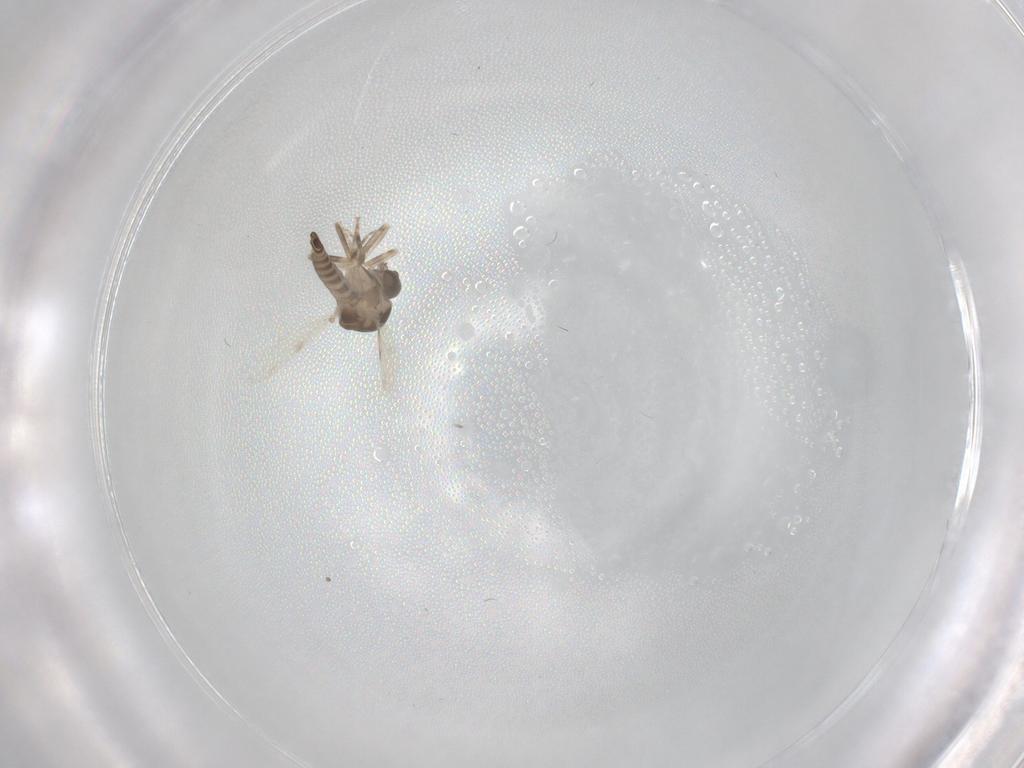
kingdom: Animalia
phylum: Arthropoda
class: Insecta
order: Diptera
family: Ceratopogonidae
